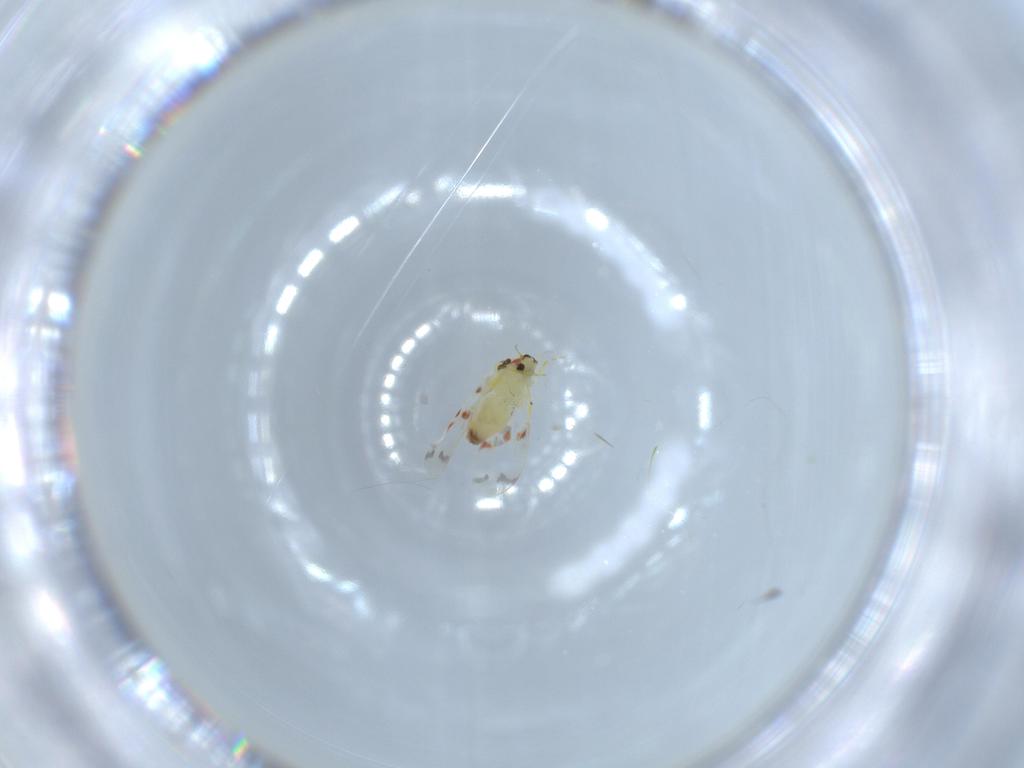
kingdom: Animalia
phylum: Arthropoda
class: Insecta
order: Hemiptera
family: Aleyrodidae
